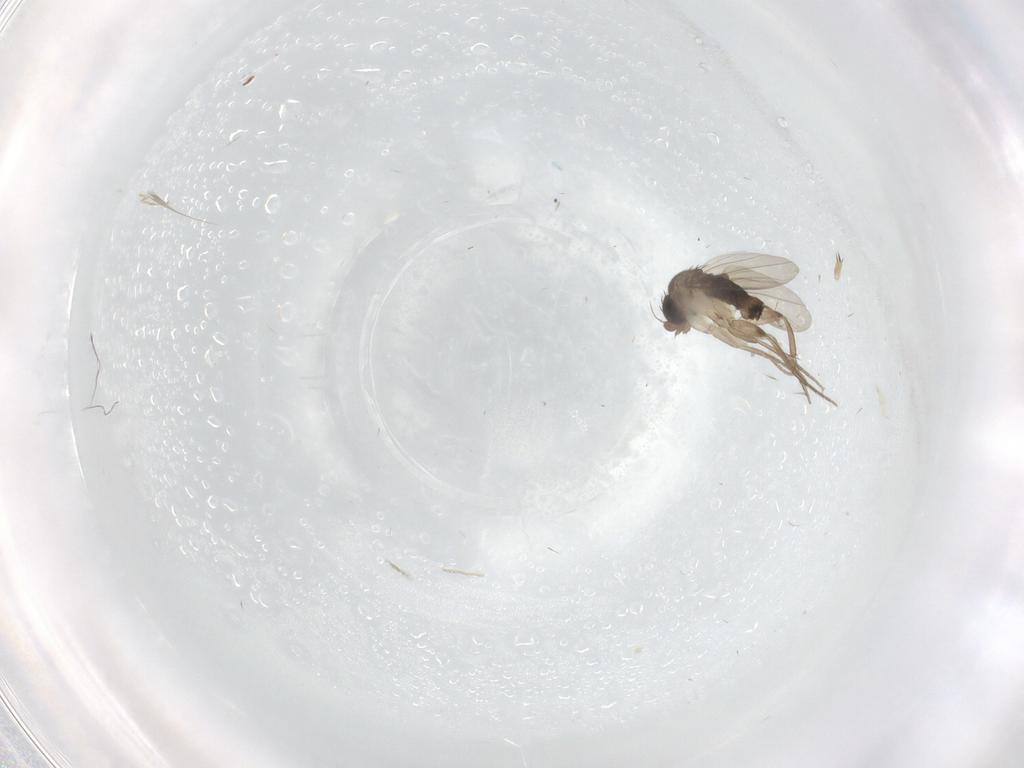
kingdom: Animalia
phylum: Arthropoda
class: Insecta
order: Diptera
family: Phoridae
